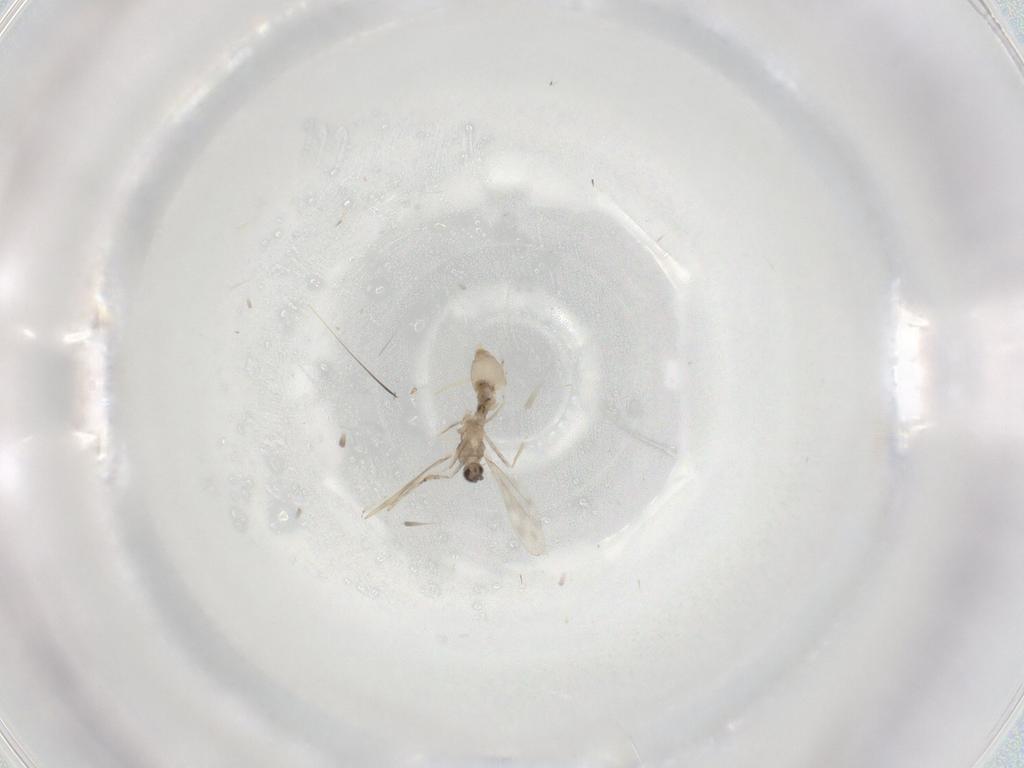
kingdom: Animalia
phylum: Arthropoda
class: Insecta
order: Diptera
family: Cecidomyiidae
